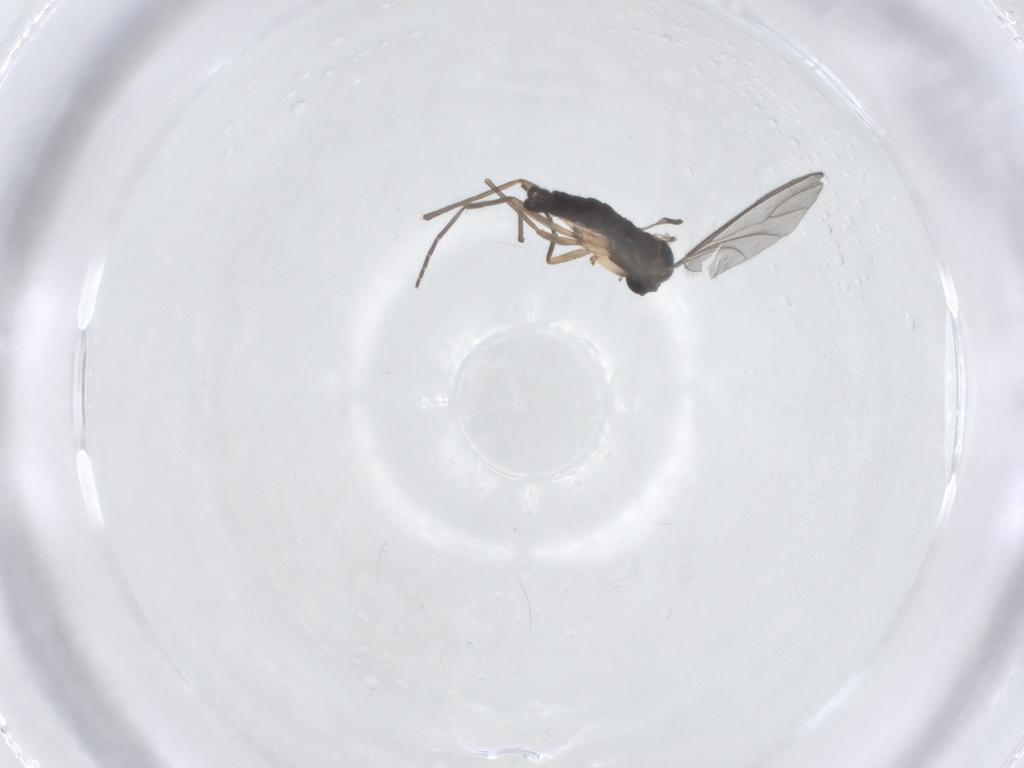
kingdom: Animalia
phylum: Arthropoda
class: Insecta
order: Diptera
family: Sciaridae
